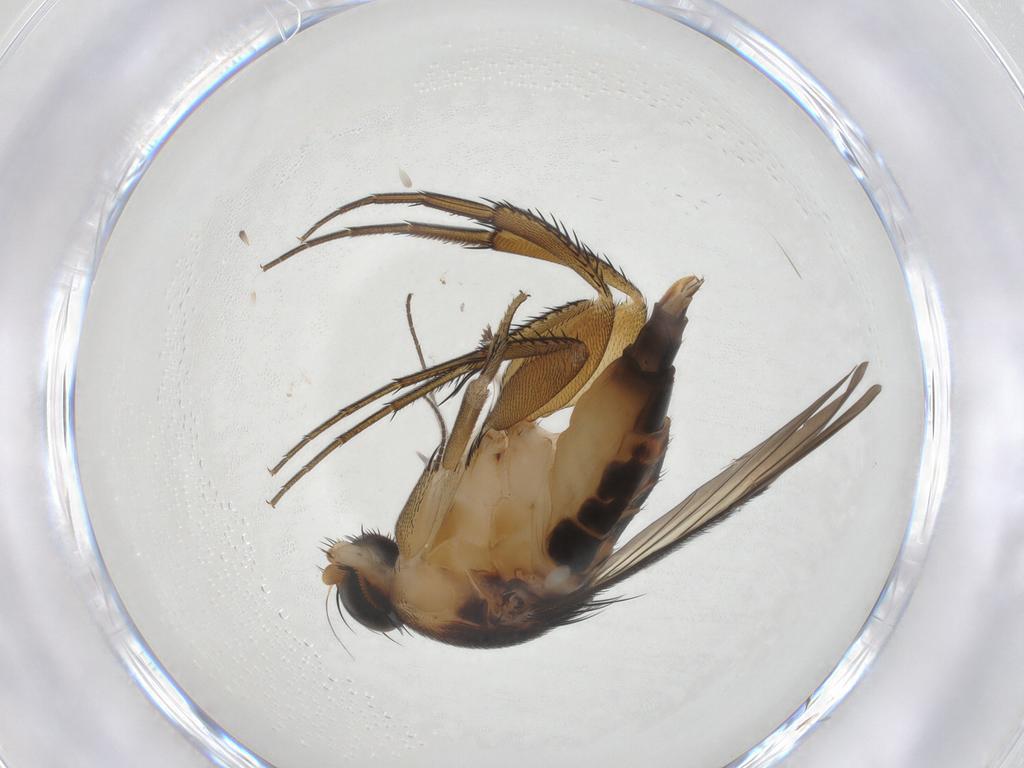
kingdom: Animalia
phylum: Arthropoda
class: Insecta
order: Diptera
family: Phoridae
